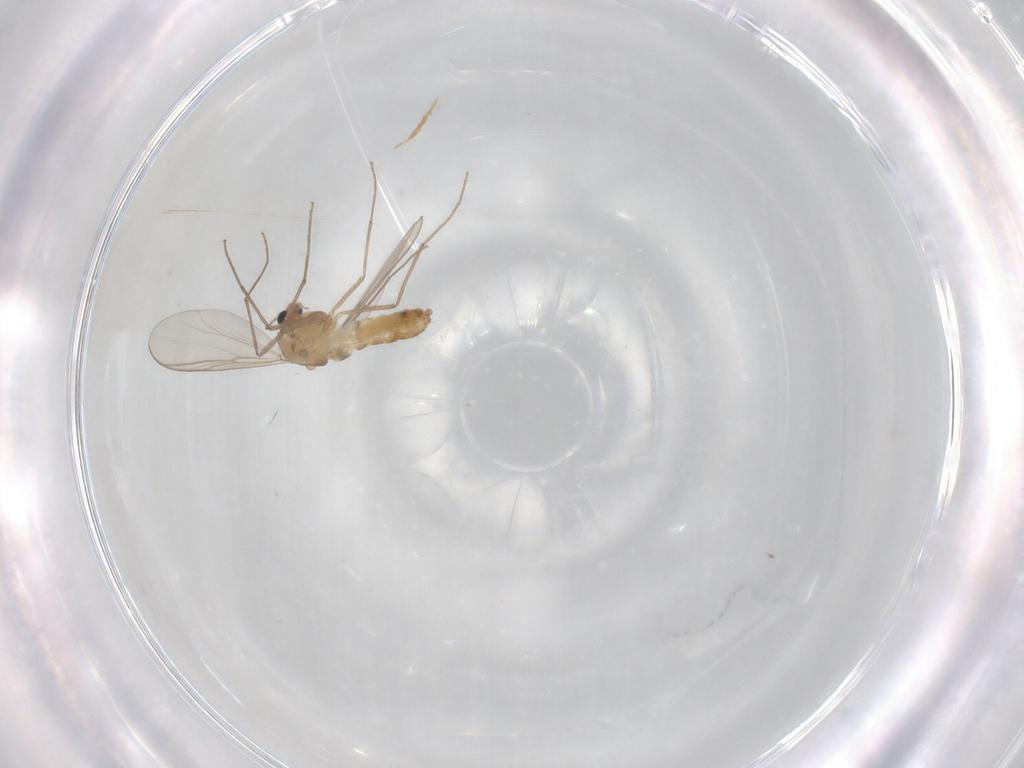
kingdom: Animalia
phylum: Arthropoda
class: Insecta
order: Diptera
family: Chironomidae
